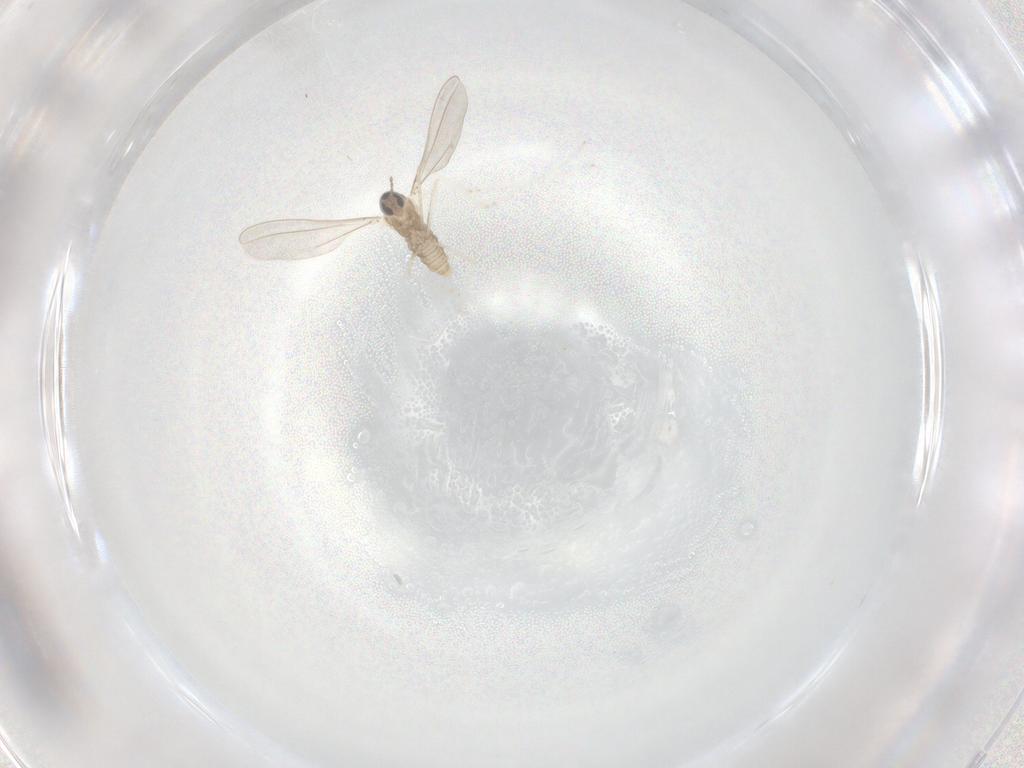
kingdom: Animalia
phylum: Arthropoda
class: Insecta
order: Diptera
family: Cecidomyiidae
